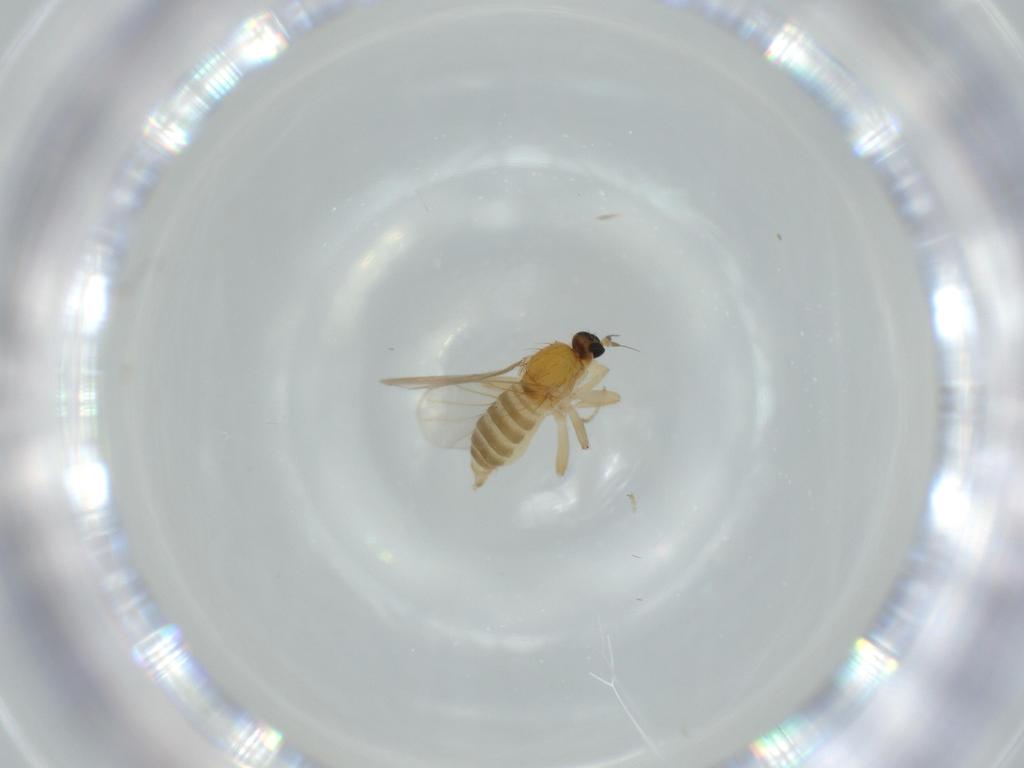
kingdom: Animalia
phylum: Arthropoda
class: Insecta
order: Diptera
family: Hybotidae
